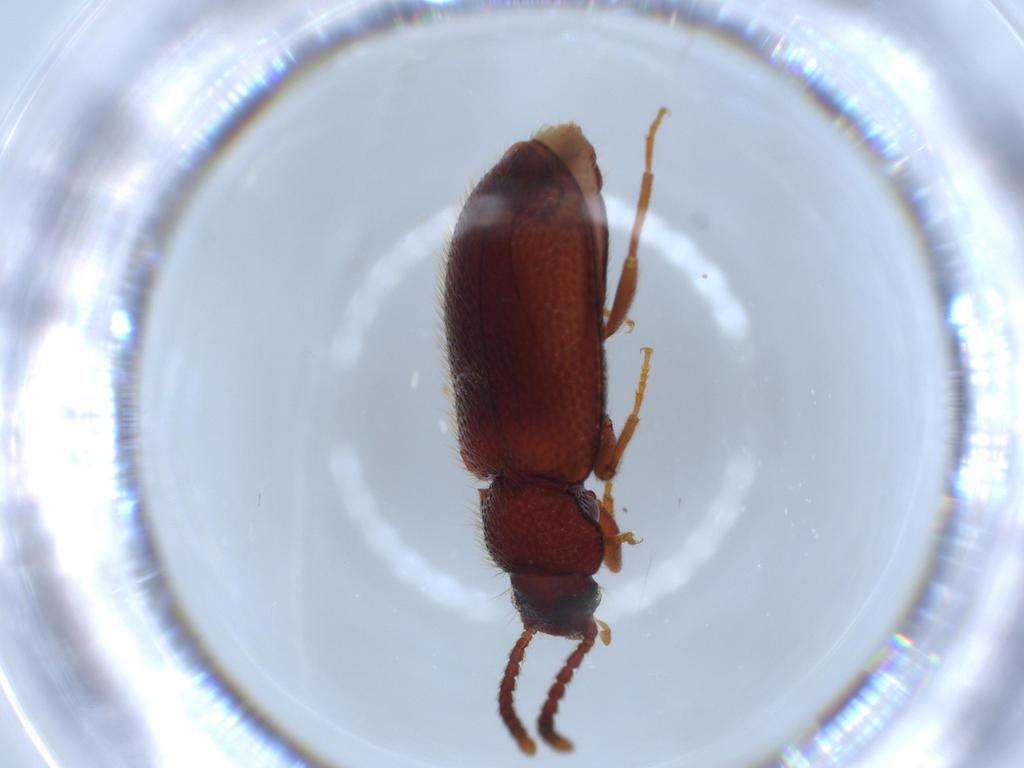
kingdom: Animalia
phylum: Arthropoda
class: Insecta
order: Coleoptera
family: Tenebrionidae
